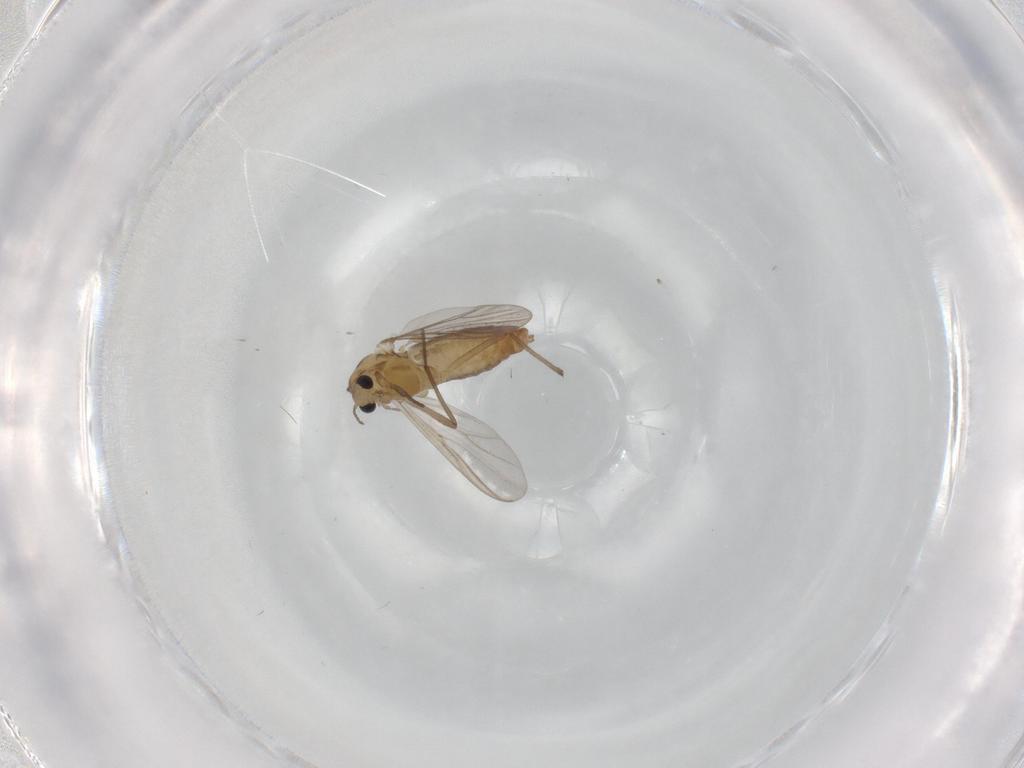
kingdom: Animalia
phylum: Arthropoda
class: Insecta
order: Diptera
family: Chironomidae
